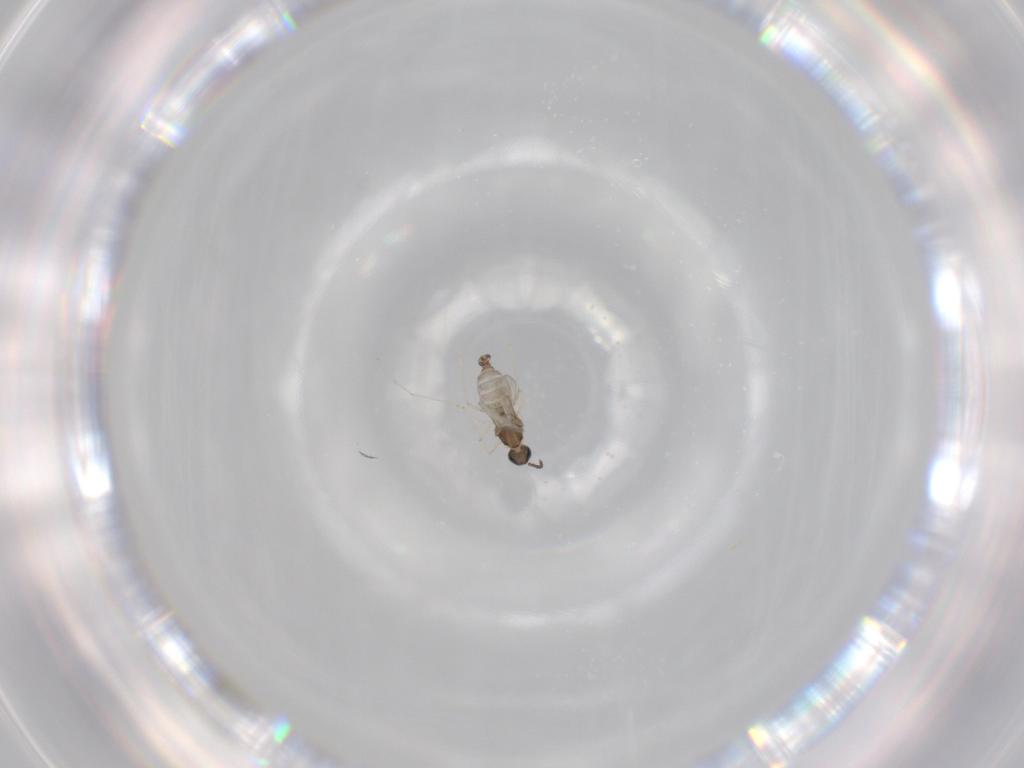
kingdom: Animalia
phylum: Arthropoda
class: Insecta
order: Diptera
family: Cecidomyiidae
